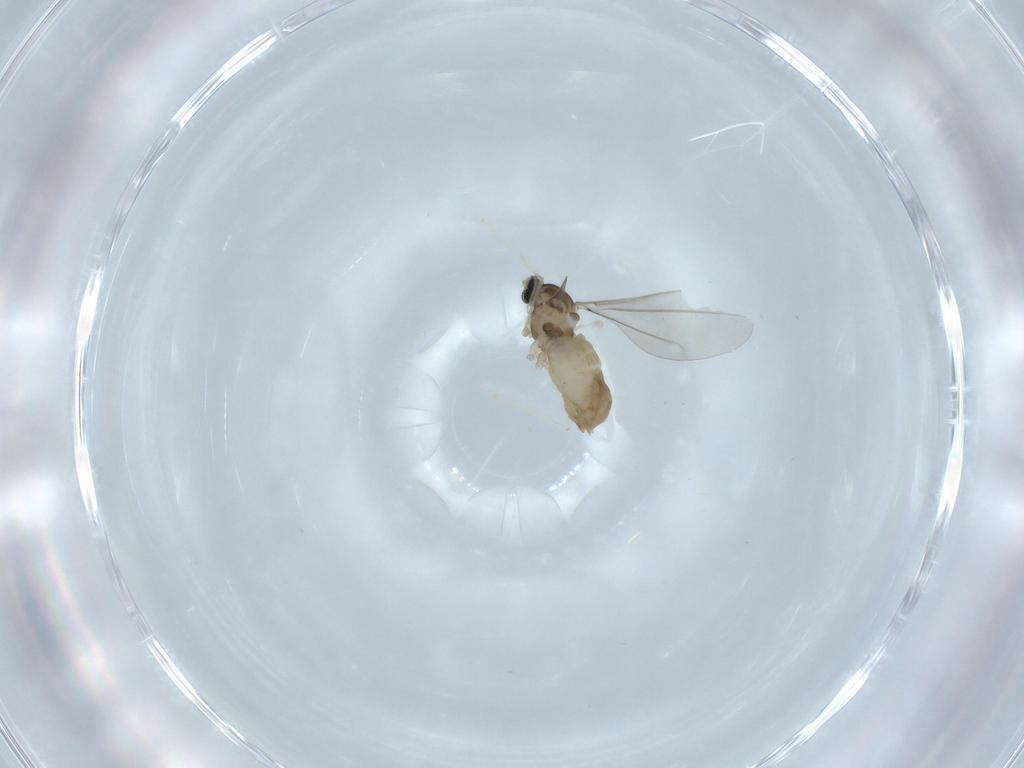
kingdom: Animalia
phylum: Arthropoda
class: Insecta
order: Diptera
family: Cecidomyiidae
